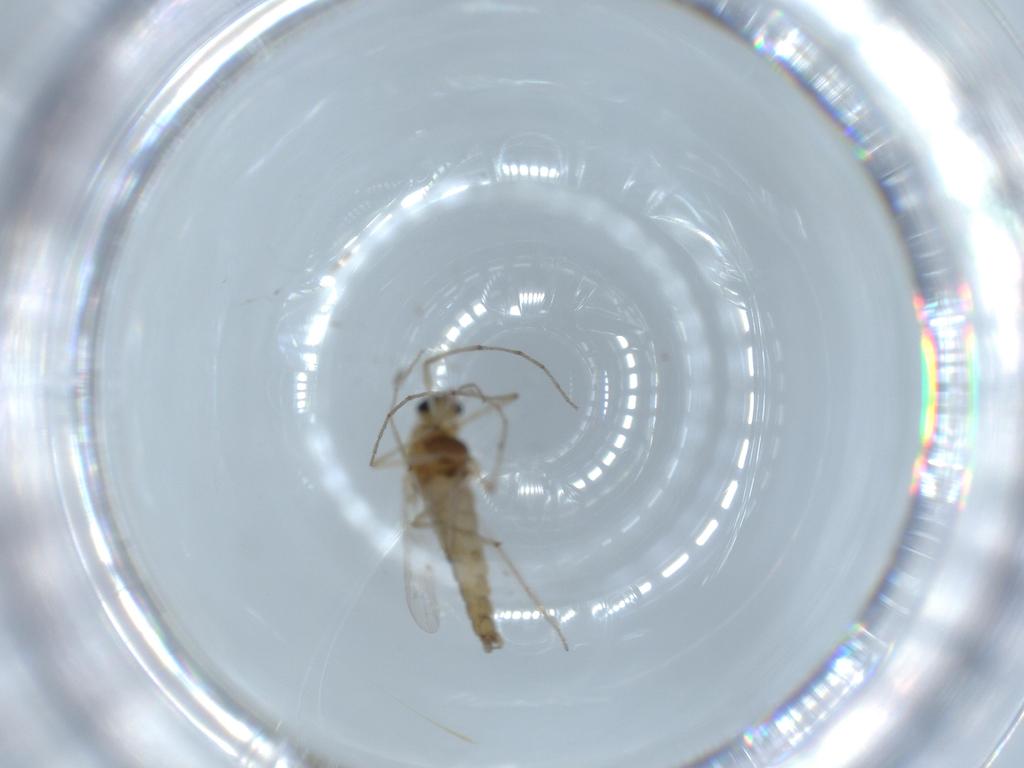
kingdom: Animalia
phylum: Arthropoda
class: Insecta
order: Diptera
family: Chironomidae
